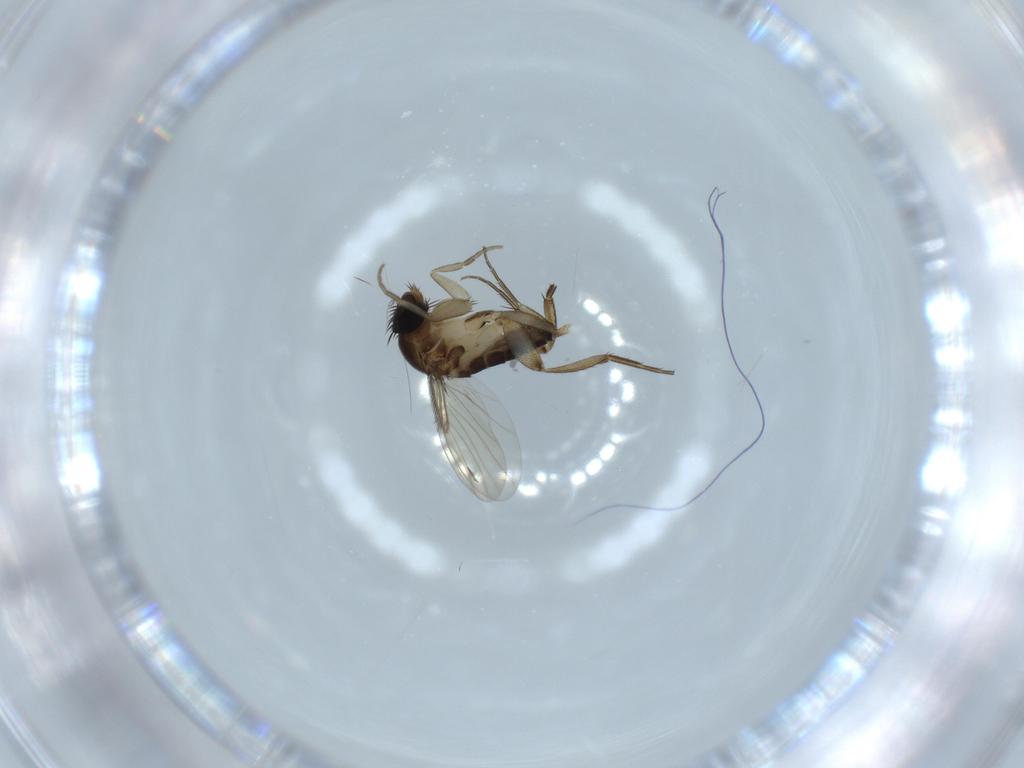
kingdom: Animalia
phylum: Arthropoda
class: Insecta
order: Diptera
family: Phoridae
